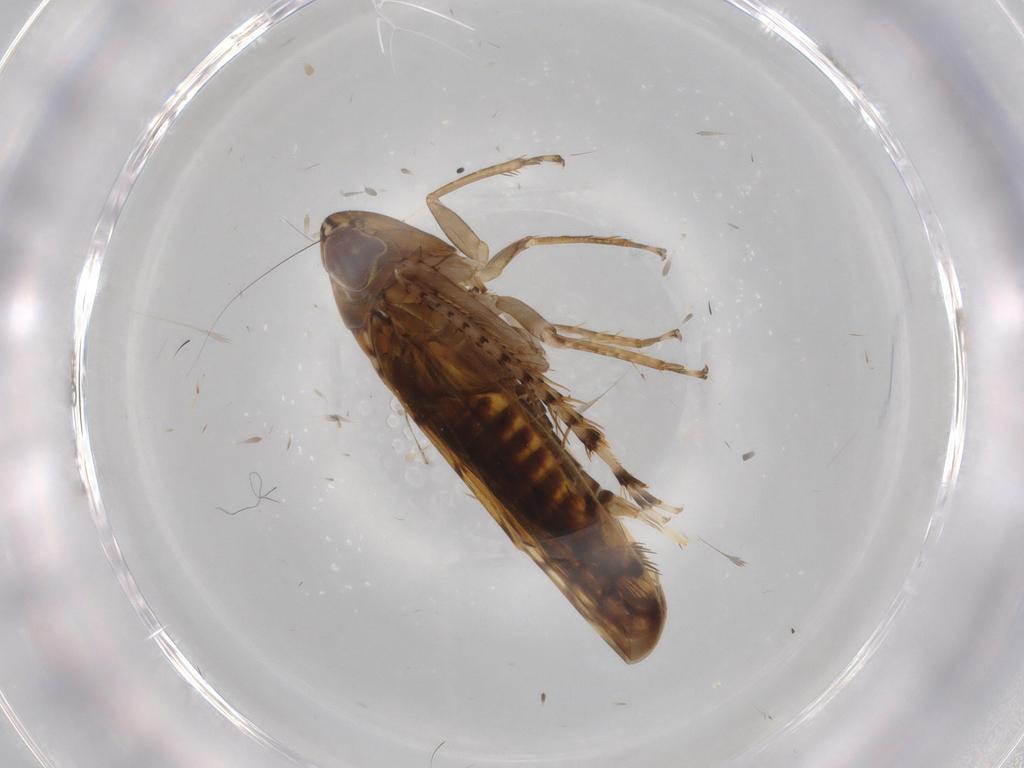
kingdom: Animalia
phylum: Arthropoda
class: Insecta
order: Hemiptera
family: Cicadellidae
